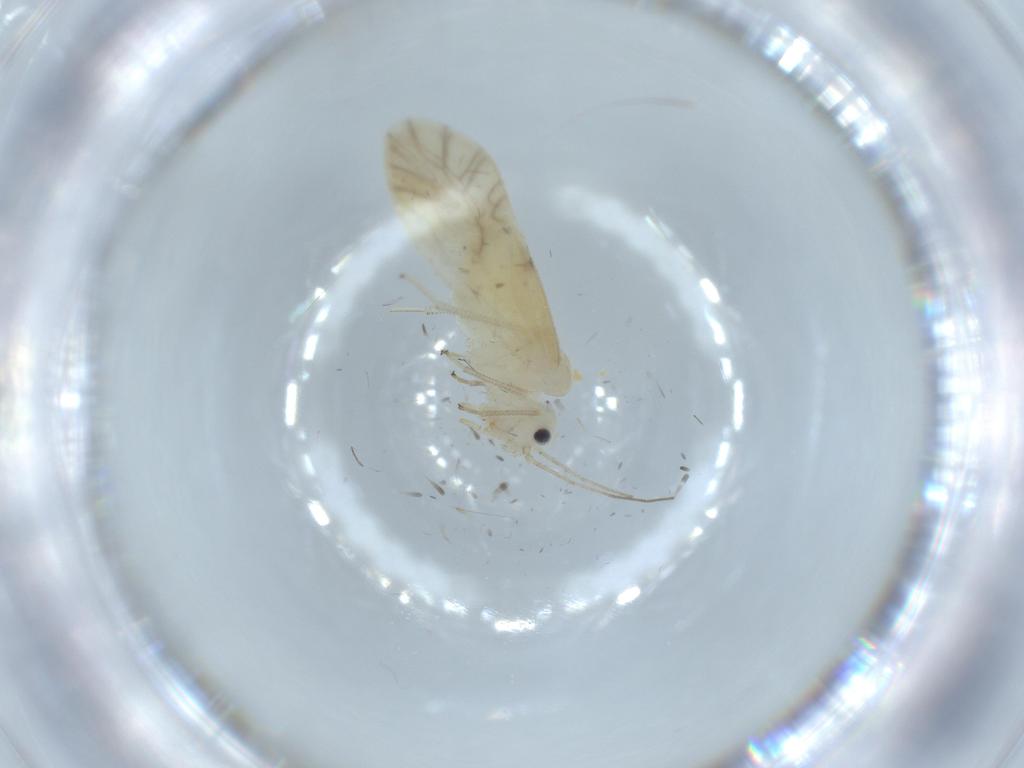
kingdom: Animalia
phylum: Arthropoda
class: Insecta
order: Psocodea
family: Caeciliusidae
